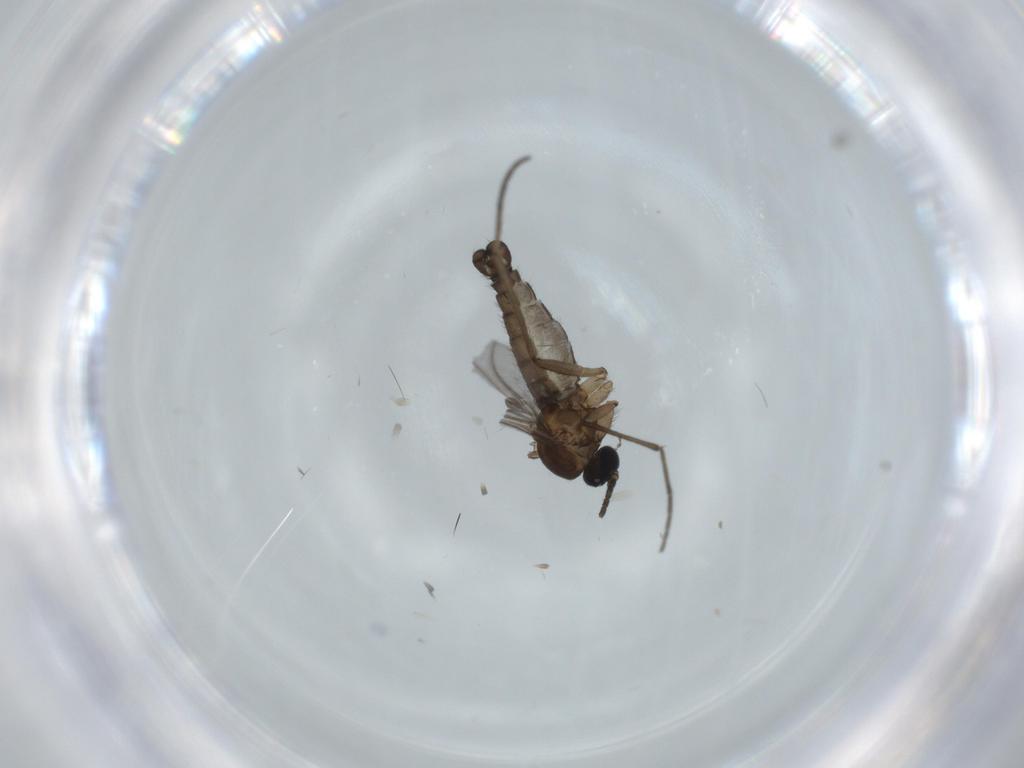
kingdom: Animalia
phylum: Arthropoda
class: Insecta
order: Diptera
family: Sciaridae
